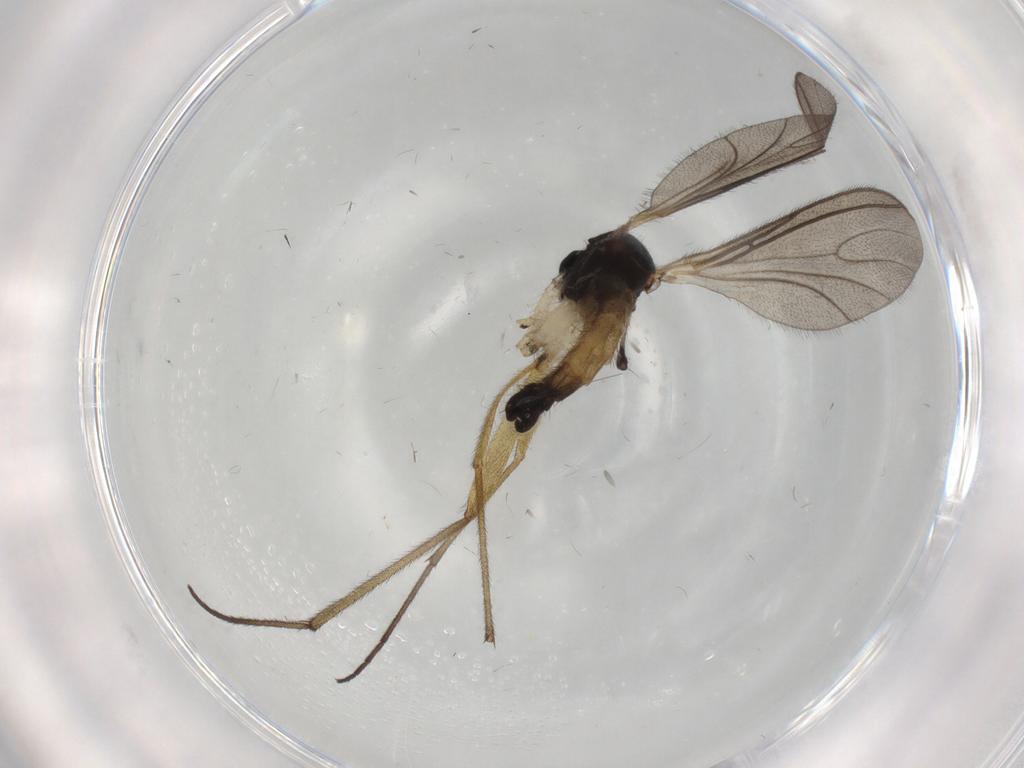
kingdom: Animalia
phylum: Arthropoda
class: Insecta
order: Diptera
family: Sciaridae
